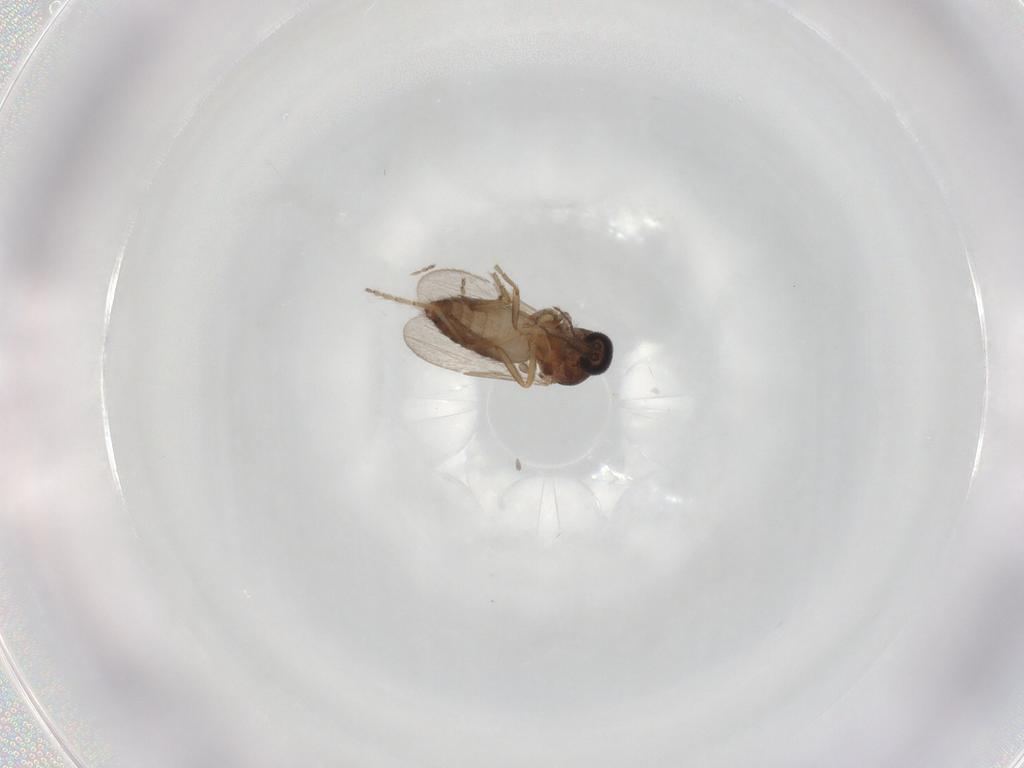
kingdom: Animalia
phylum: Arthropoda
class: Insecta
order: Diptera
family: Ceratopogonidae
